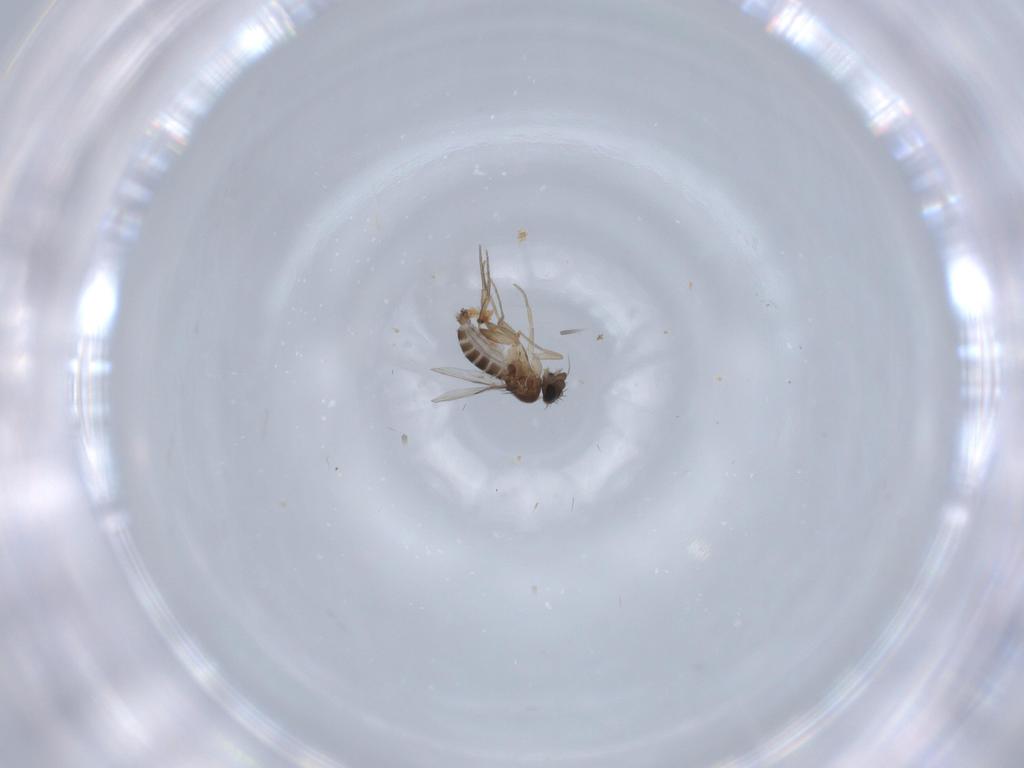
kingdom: Animalia
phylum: Arthropoda
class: Insecta
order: Diptera
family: Chironomidae
